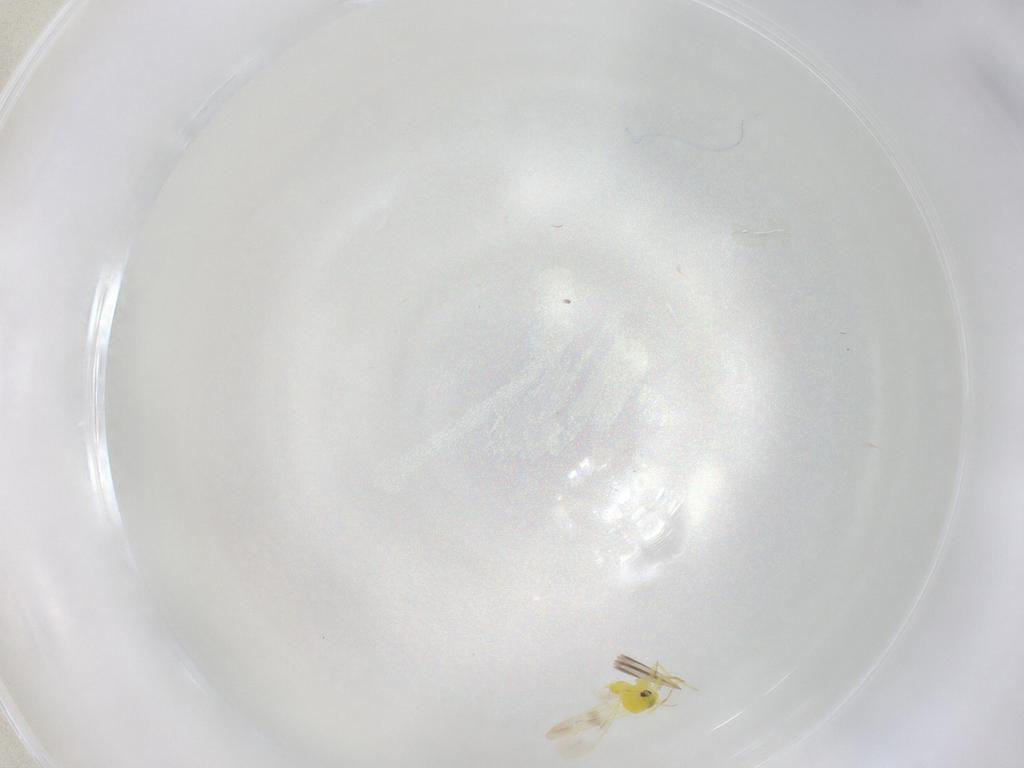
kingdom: Animalia
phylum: Arthropoda
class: Insecta
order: Hemiptera
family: Aleyrodidae
